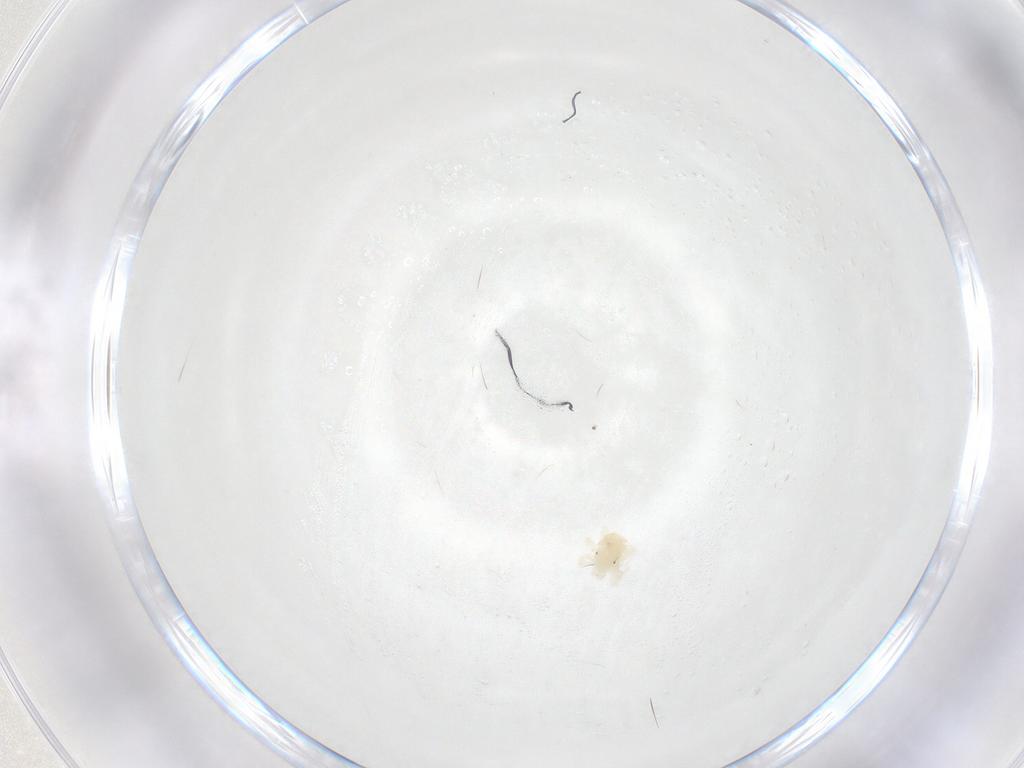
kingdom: Animalia
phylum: Arthropoda
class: Arachnida
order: Trombidiformes
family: Anystidae
